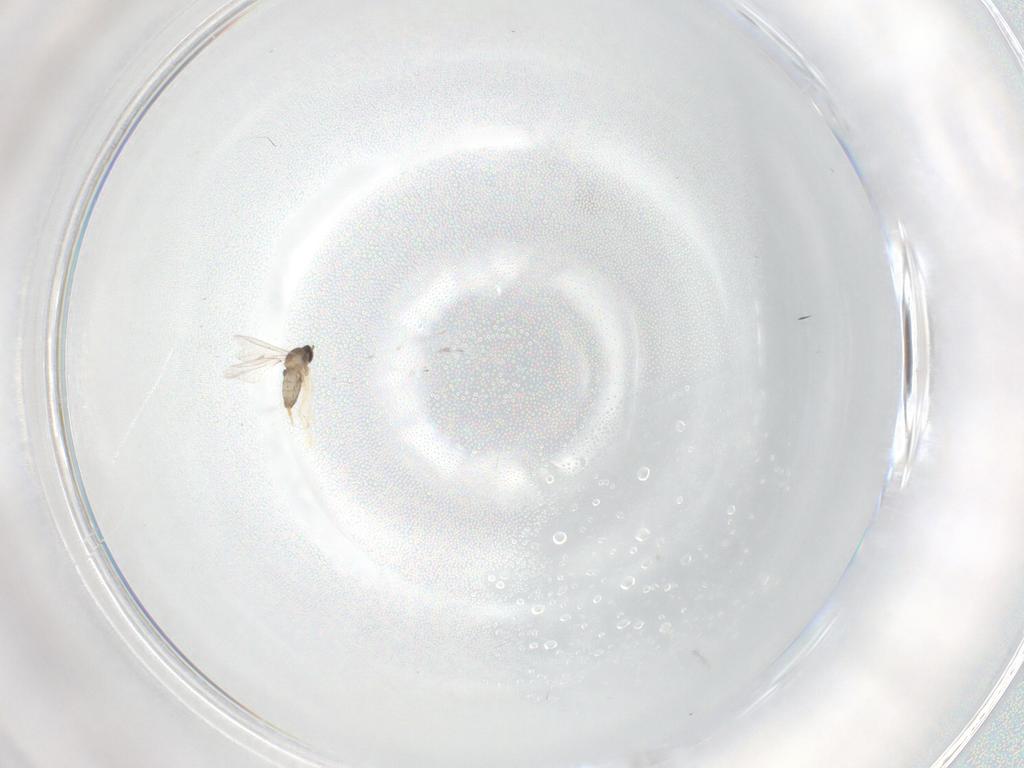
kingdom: Animalia
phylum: Arthropoda
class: Insecta
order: Diptera
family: Cecidomyiidae
